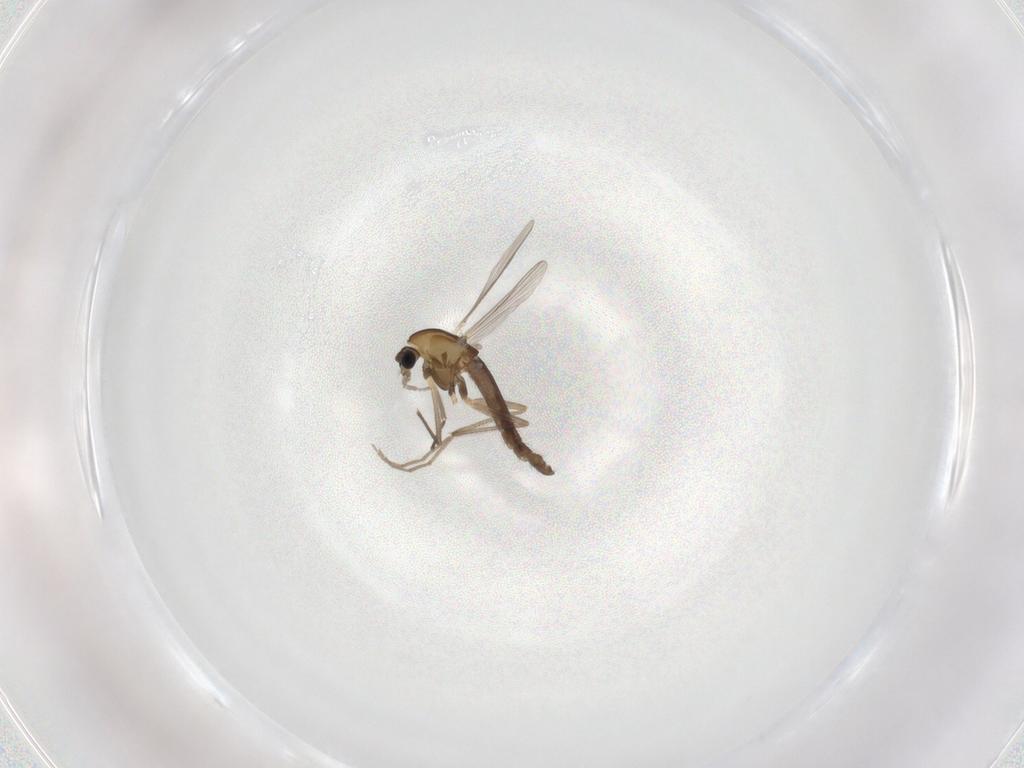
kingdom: Animalia
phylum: Arthropoda
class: Insecta
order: Diptera
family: Chironomidae
